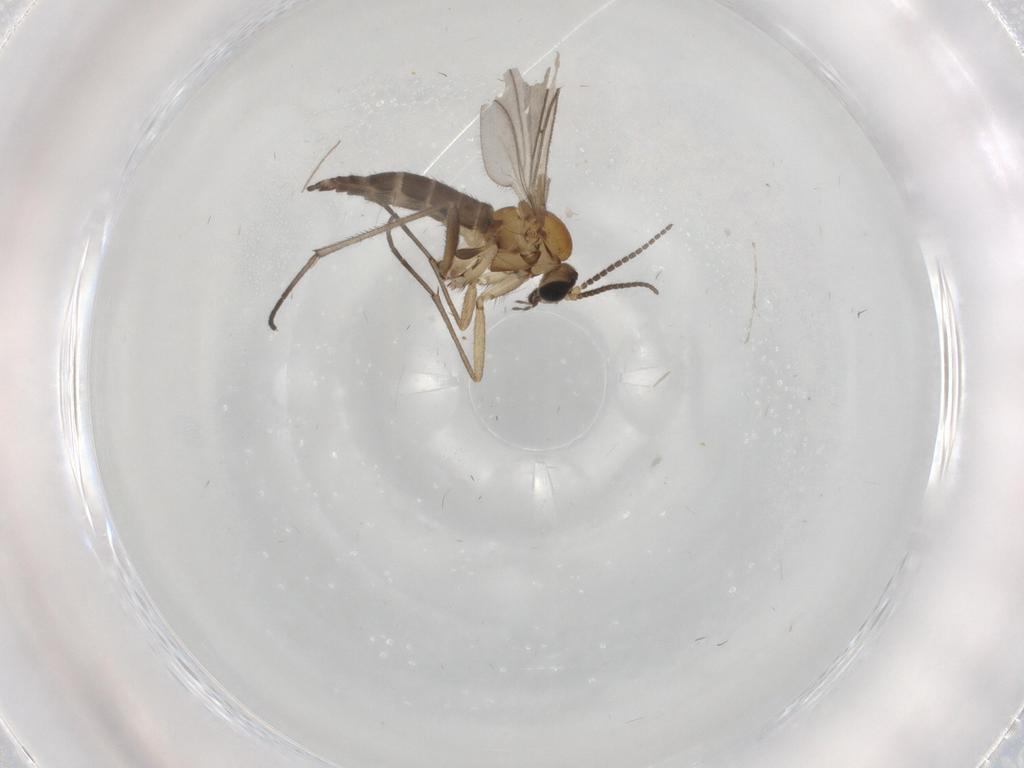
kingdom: Animalia
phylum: Arthropoda
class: Insecta
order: Diptera
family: Sciaridae
